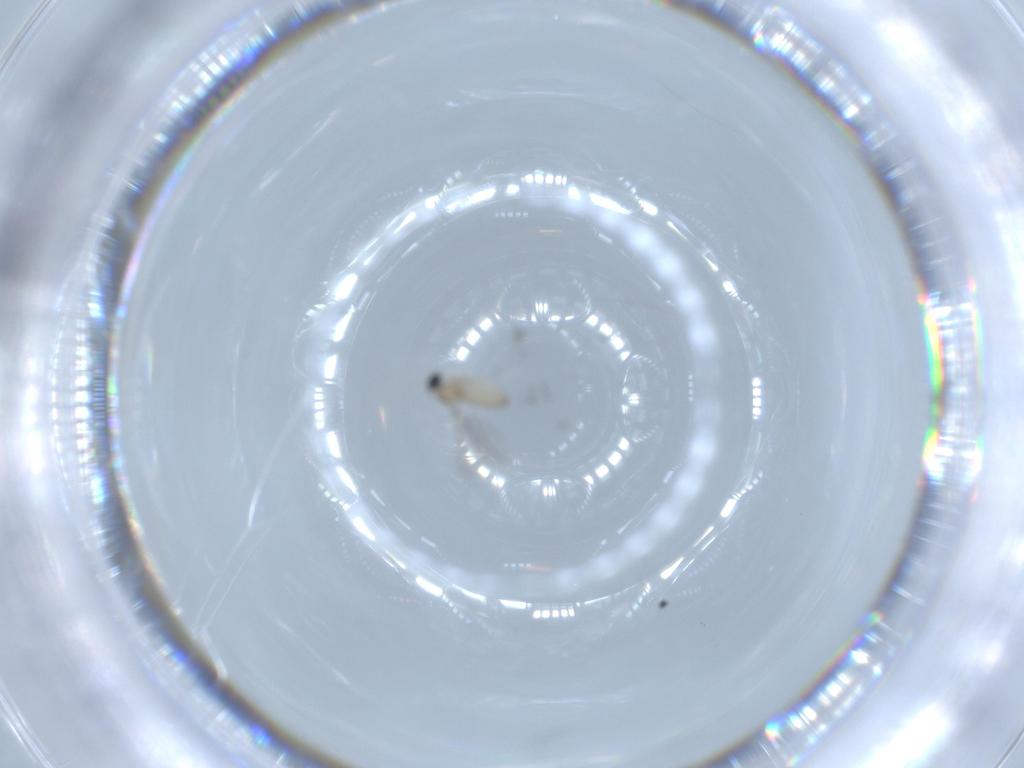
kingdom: Animalia
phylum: Arthropoda
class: Insecta
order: Diptera
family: Cecidomyiidae
